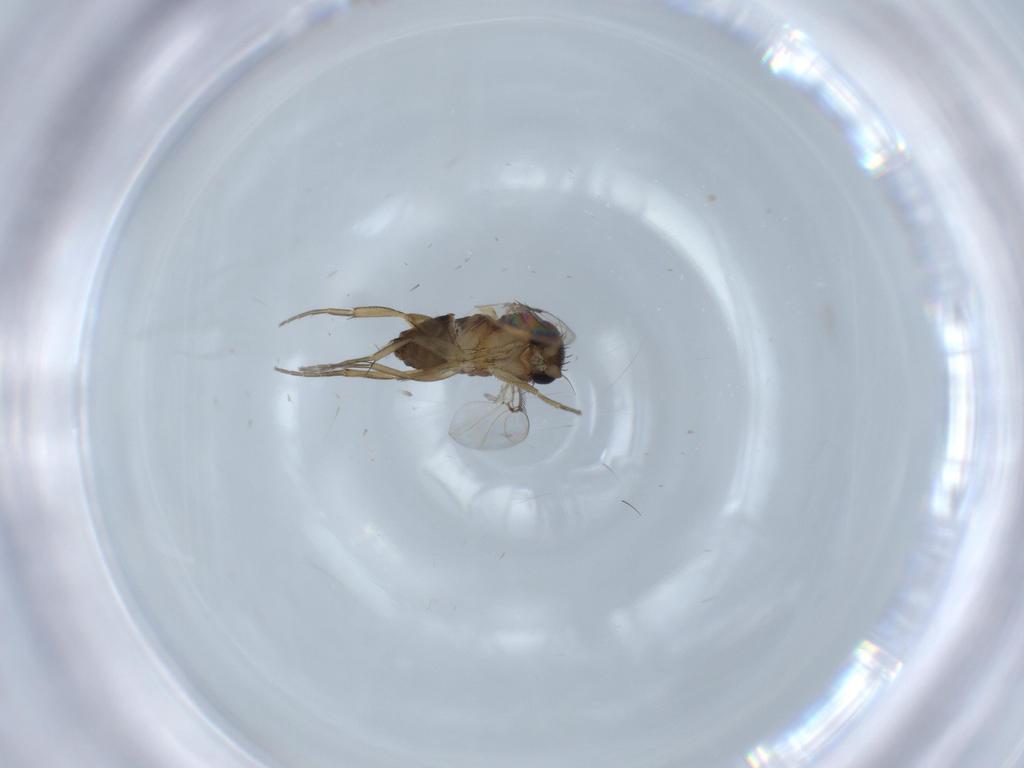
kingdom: Animalia
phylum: Arthropoda
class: Insecta
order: Diptera
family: Phoridae
